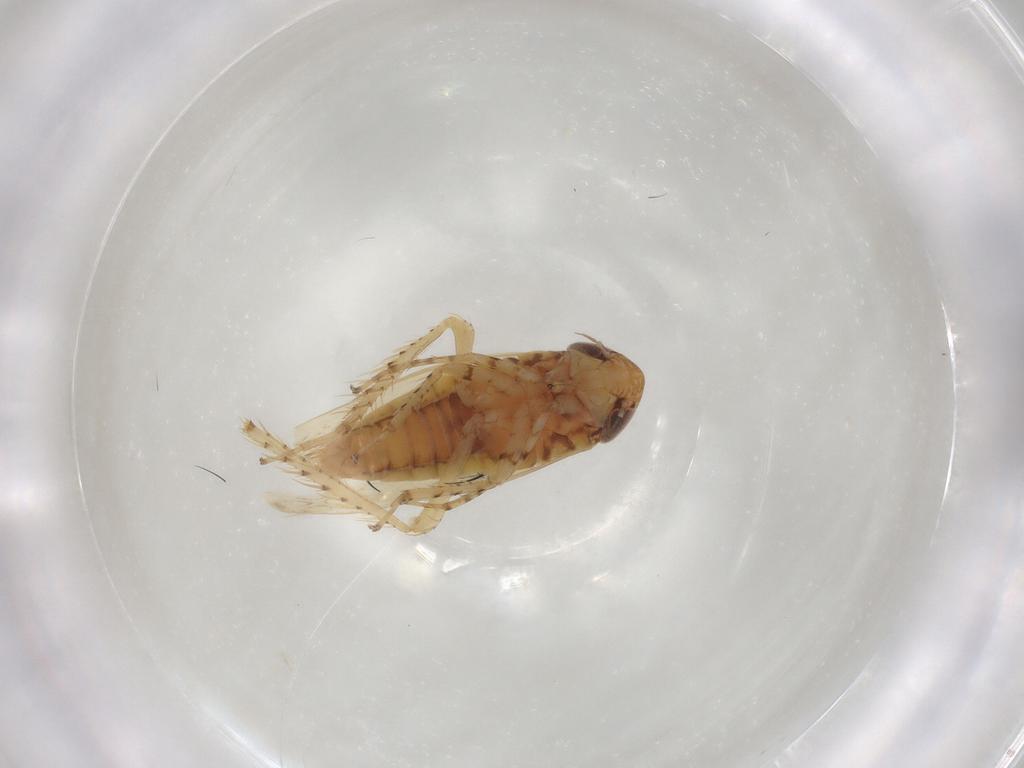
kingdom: Animalia
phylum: Arthropoda
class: Insecta
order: Hemiptera
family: Cicadellidae
